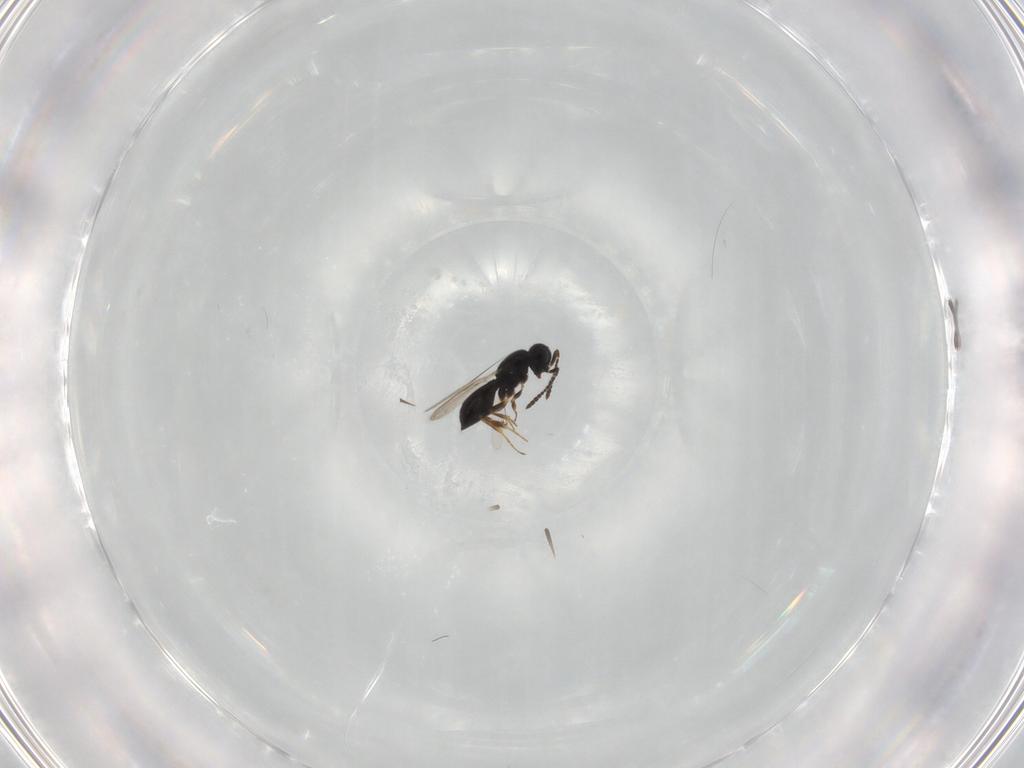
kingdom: Animalia
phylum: Arthropoda
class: Insecta
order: Hymenoptera
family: Scelionidae
